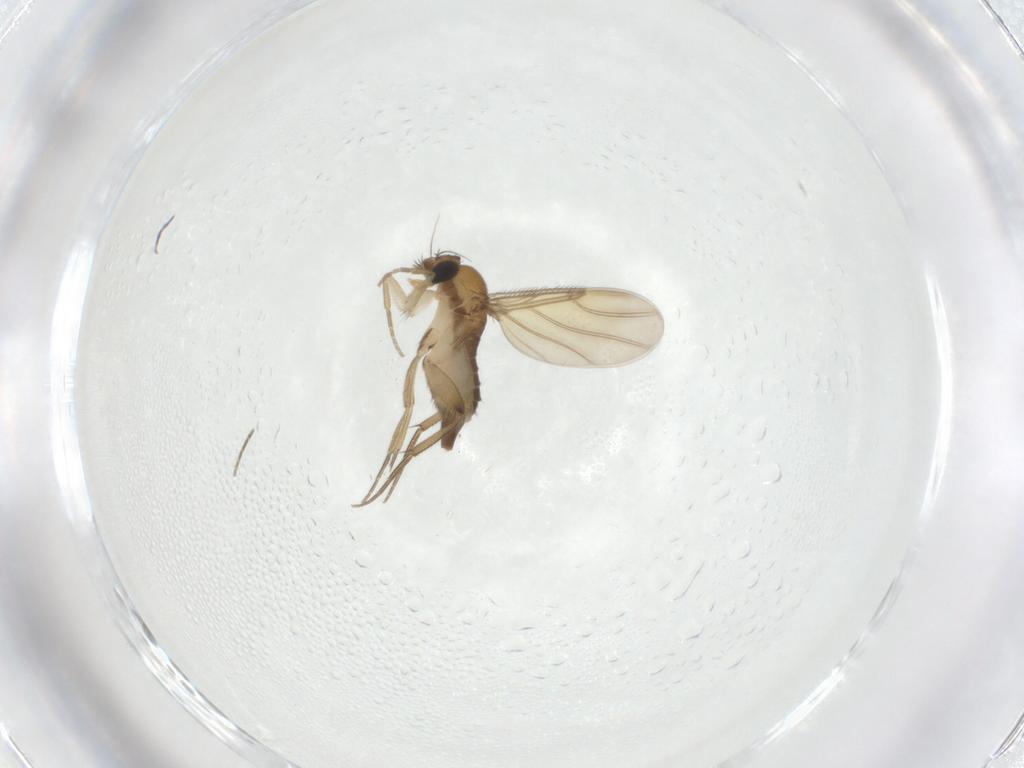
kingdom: Animalia
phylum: Arthropoda
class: Insecta
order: Diptera
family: Phoridae
